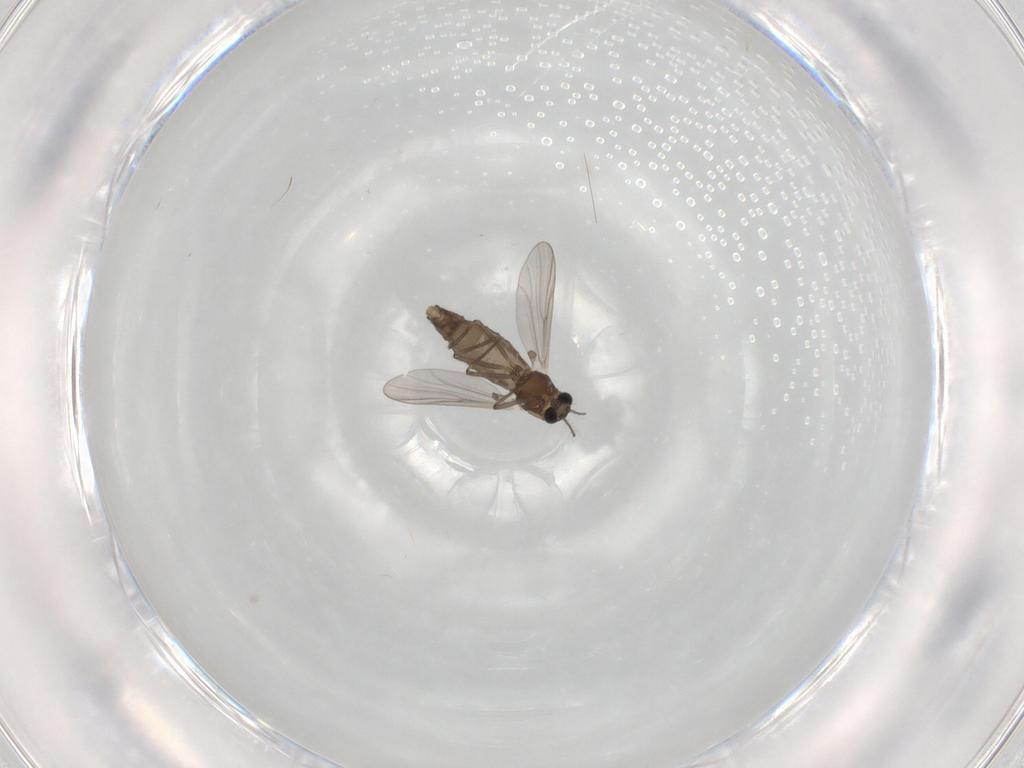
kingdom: Animalia
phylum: Arthropoda
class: Insecta
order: Diptera
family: Chironomidae
